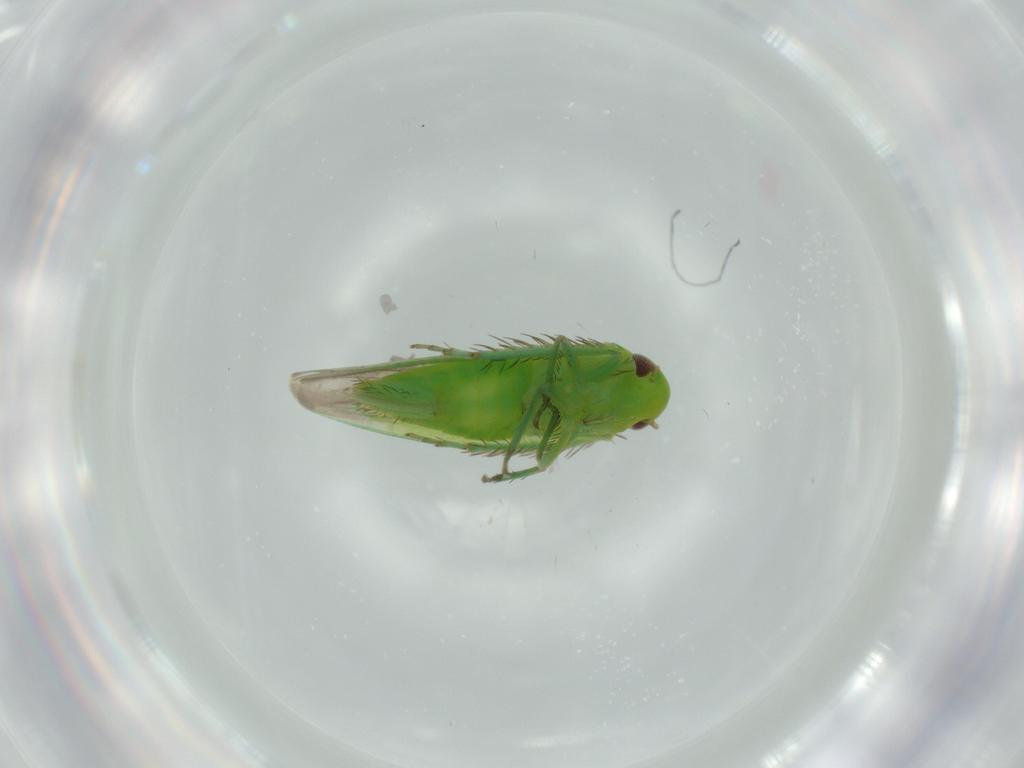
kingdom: Animalia
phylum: Arthropoda
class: Insecta
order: Hemiptera
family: Cicadellidae
